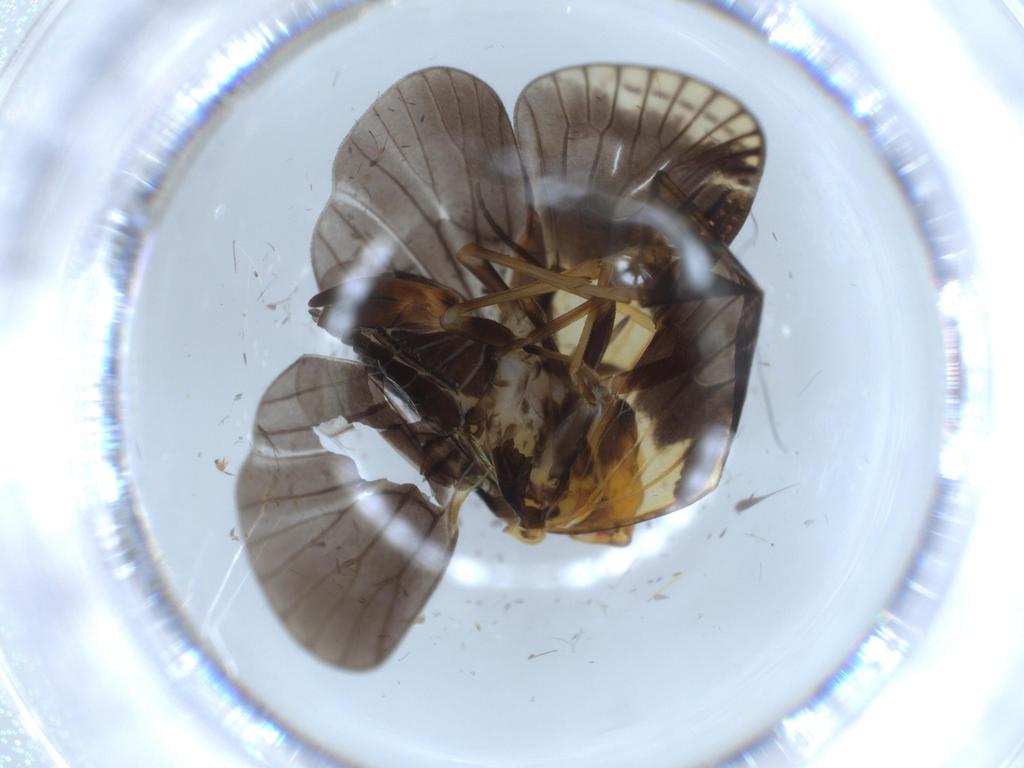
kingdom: Animalia
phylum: Arthropoda
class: Insecta
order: Hemiptera
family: Cixiidae
